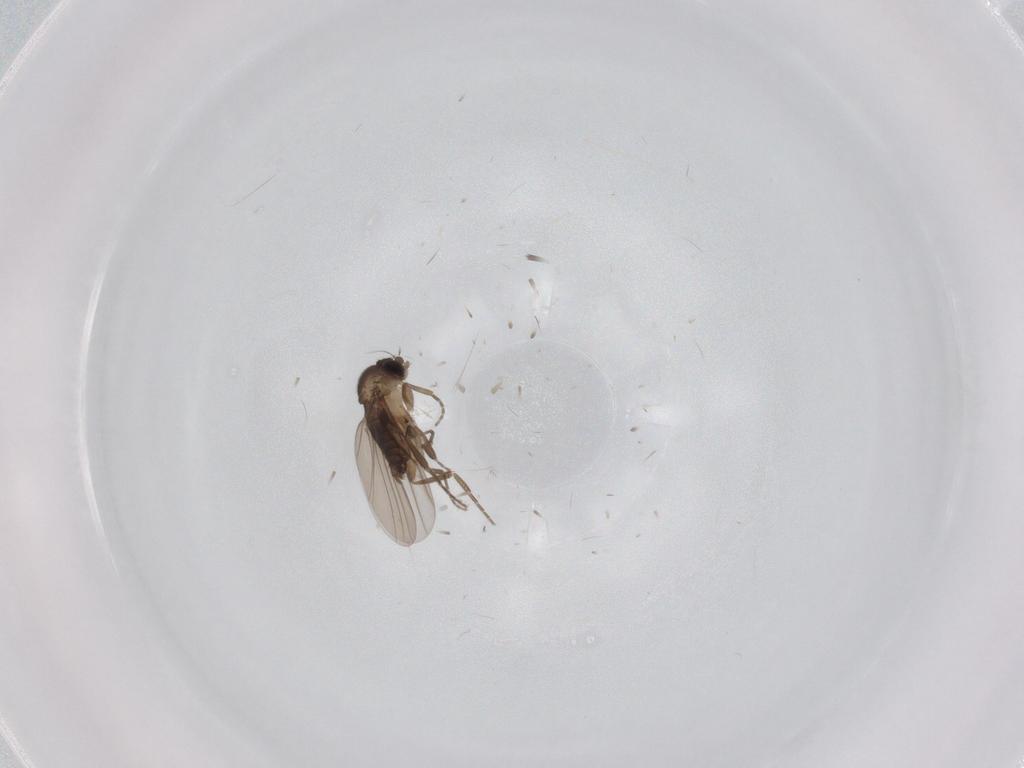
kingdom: Animalia
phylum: Arthropoda
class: Insecta
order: Diptera
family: Phoridae
